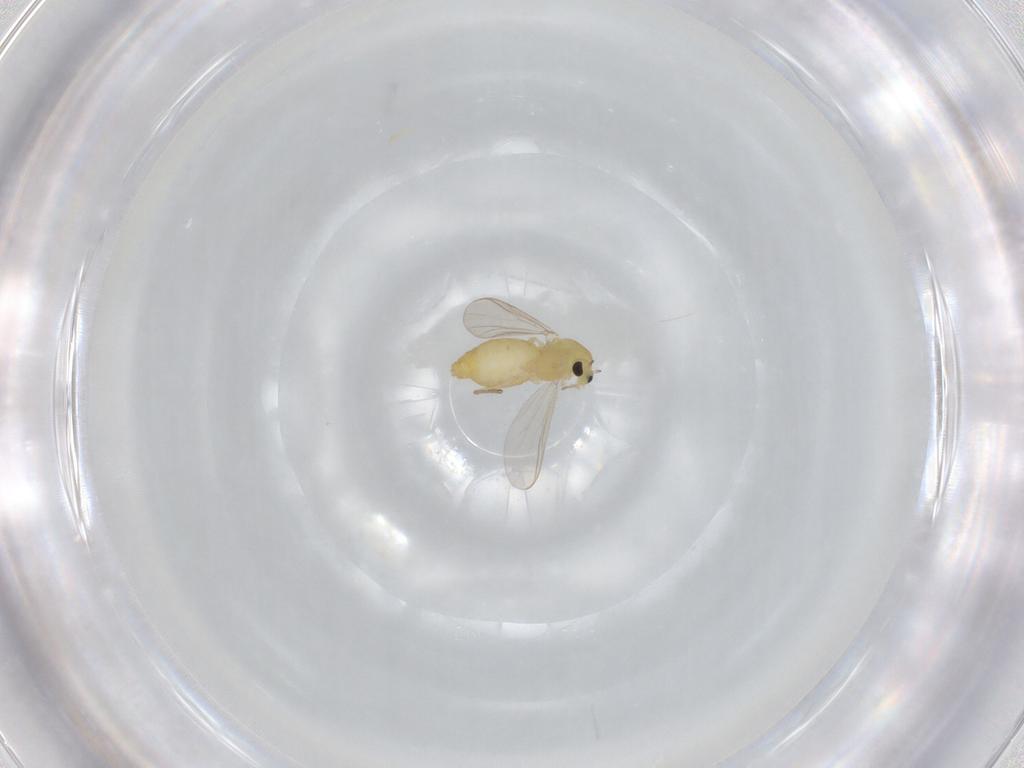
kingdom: Animalia
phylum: Arthropoda
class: Insecta
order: Diptera
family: Chironomidae
